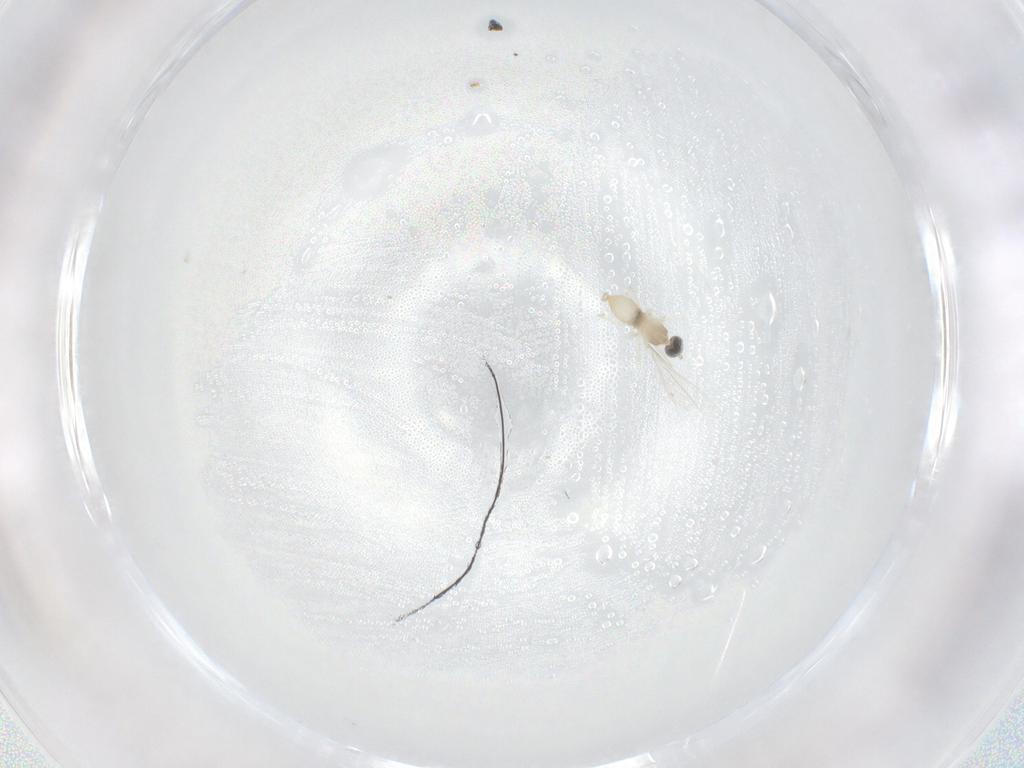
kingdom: Animalia
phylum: Arthropoda
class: Insecta
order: Diptera
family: Cecidomyiidae
